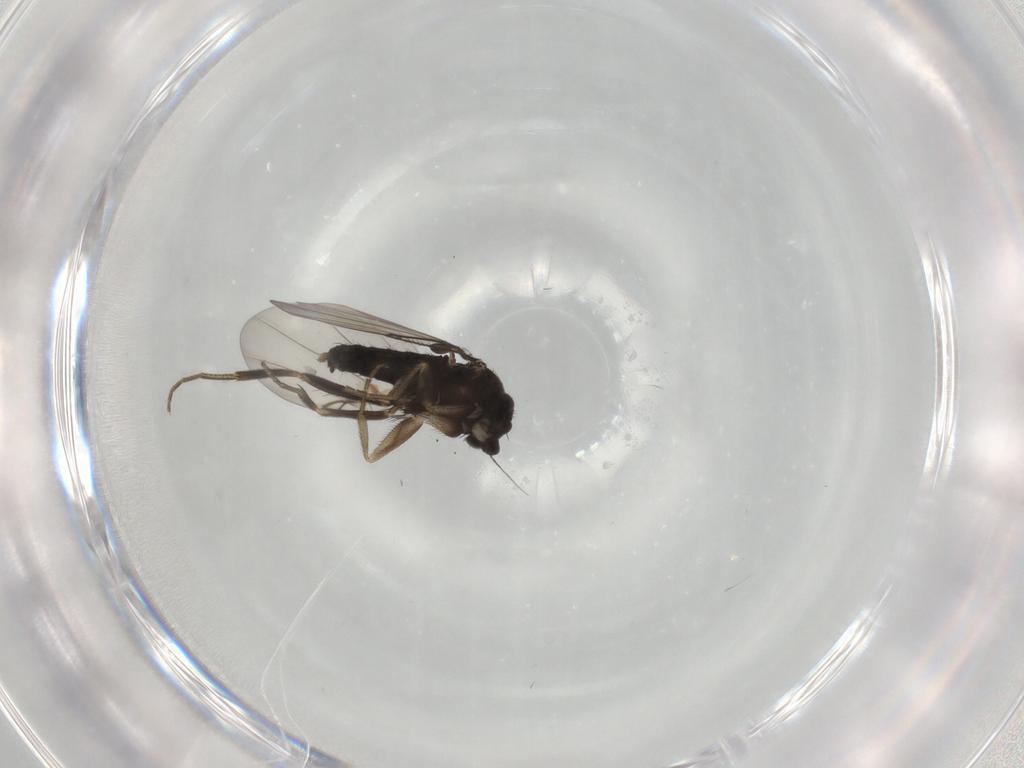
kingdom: Animalia
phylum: Arthropoda
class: Insecta
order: Diptera
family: Phoridae
